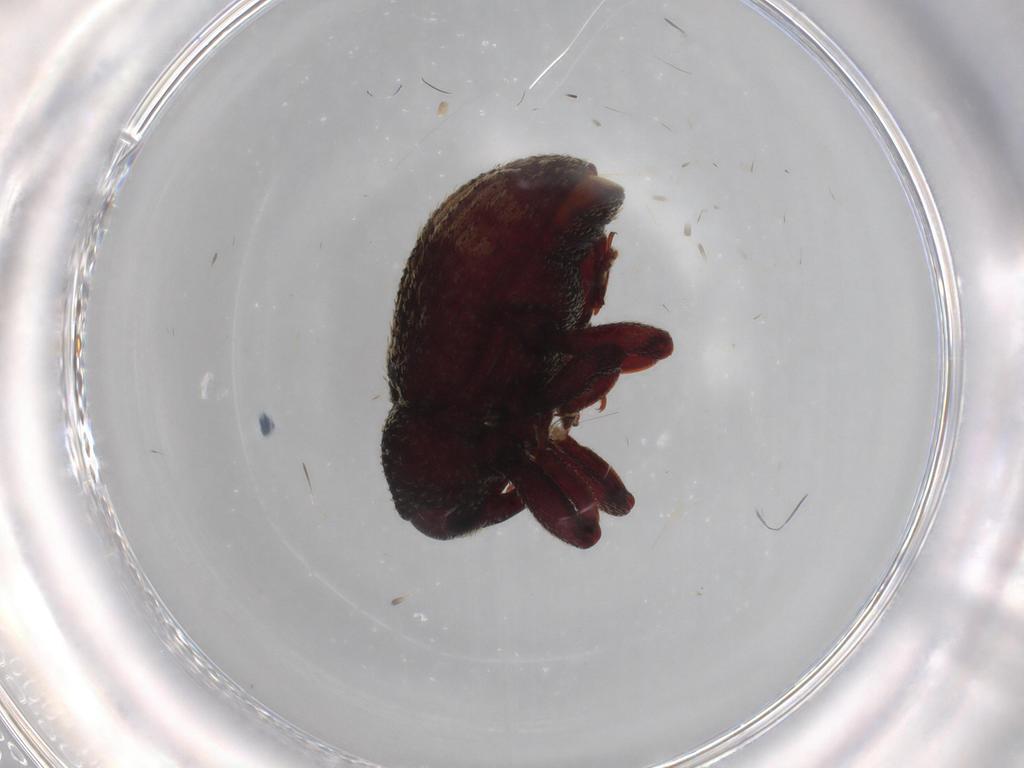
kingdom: Animalia
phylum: Arthropoda
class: Insecta
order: Coleoptera
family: Curculionidae
